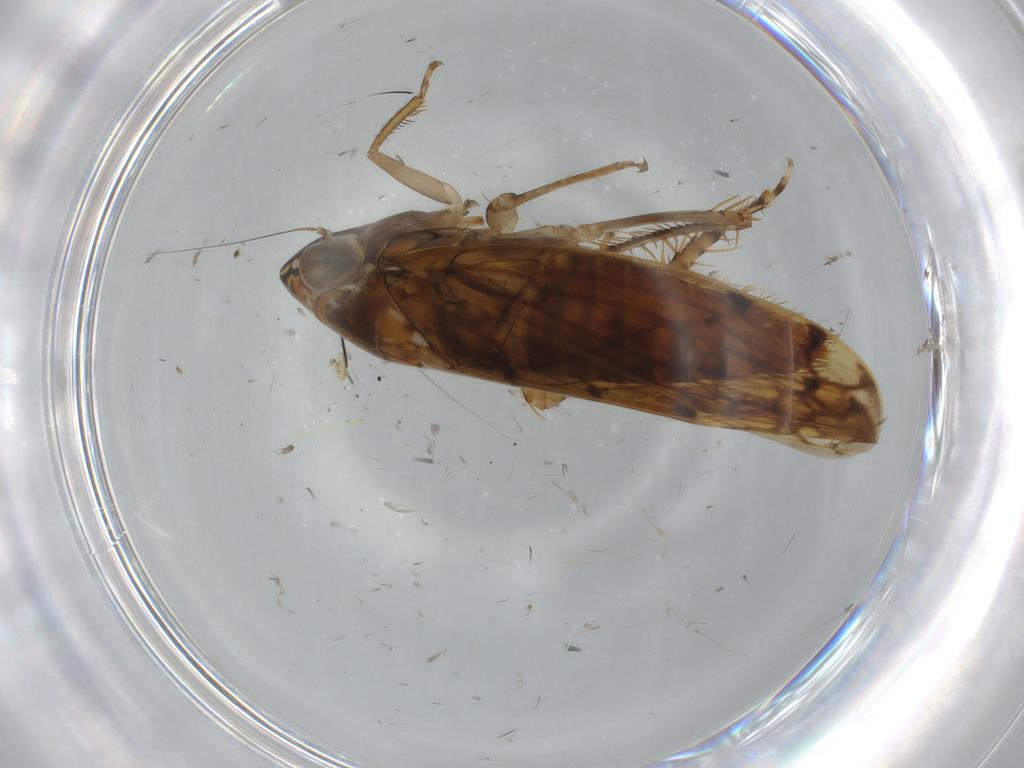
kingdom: Animalia
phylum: Arthropoda
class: Insecta
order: Hemiptera
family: Cicadellidae
